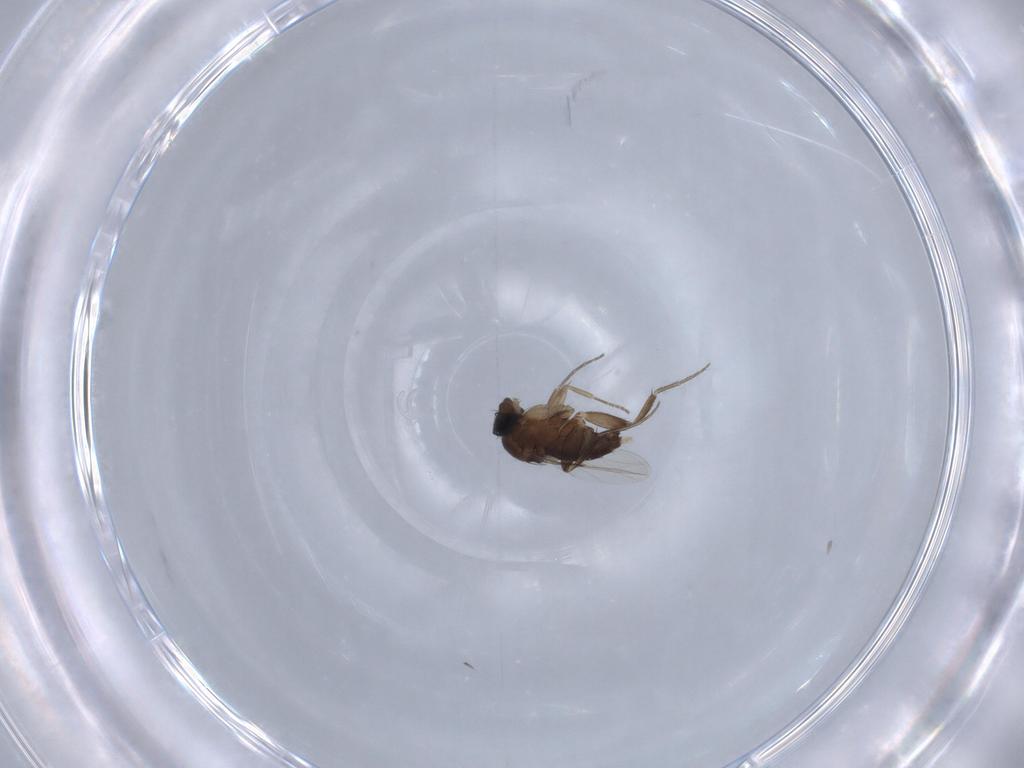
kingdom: Animalia
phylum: Arthropoda
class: Insecta
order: Diptera
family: Phoridae
